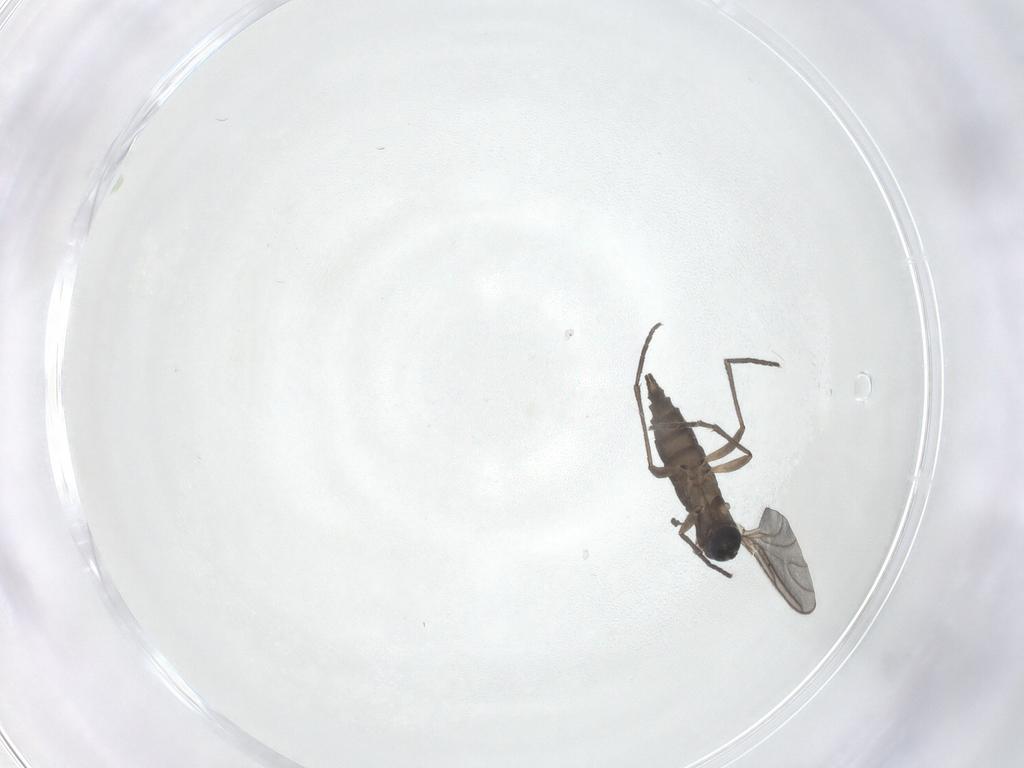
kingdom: Animalia
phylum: Arthropoda
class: Insecta
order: Diptera
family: Sciaridae
